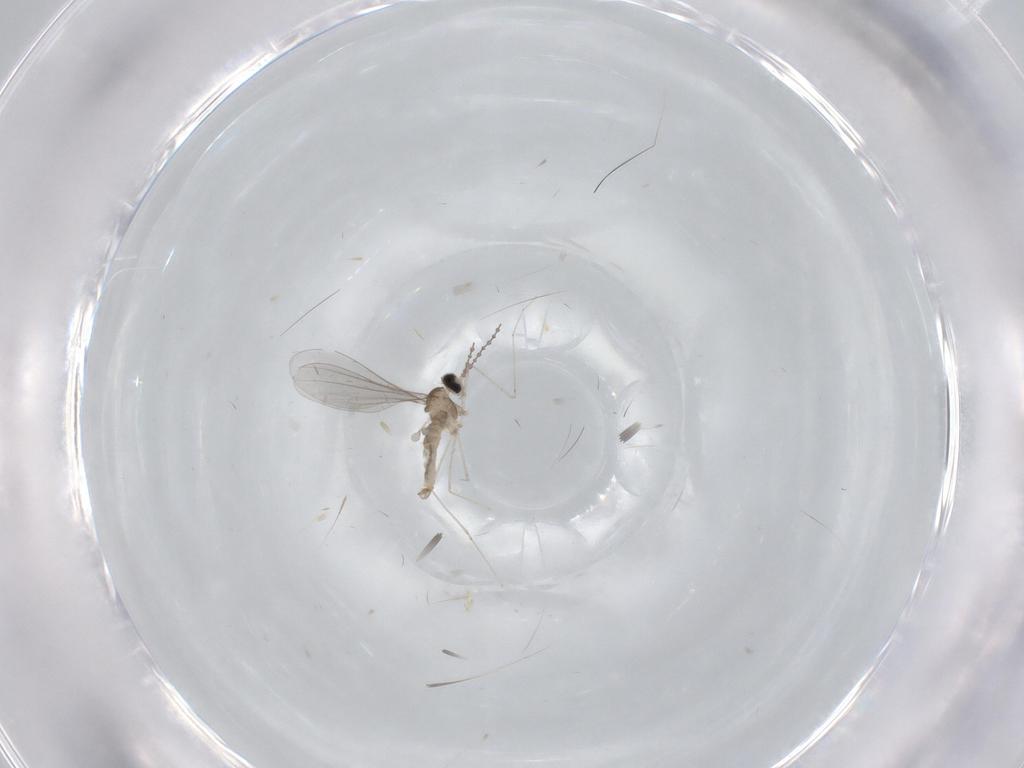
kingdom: Animalia
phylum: Arthropoda
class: Insecta
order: Diptera
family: Cecidomyiidae
